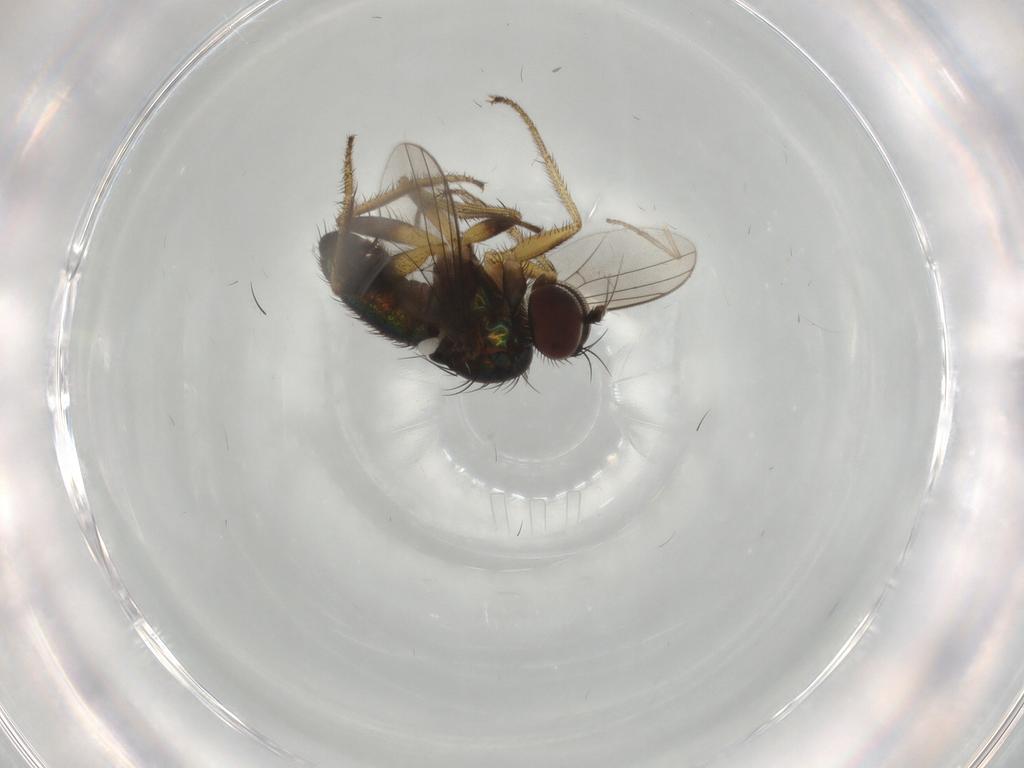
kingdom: Animalia
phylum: Arthropoda
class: Insecta
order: Diptera
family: Dolichopodidae
